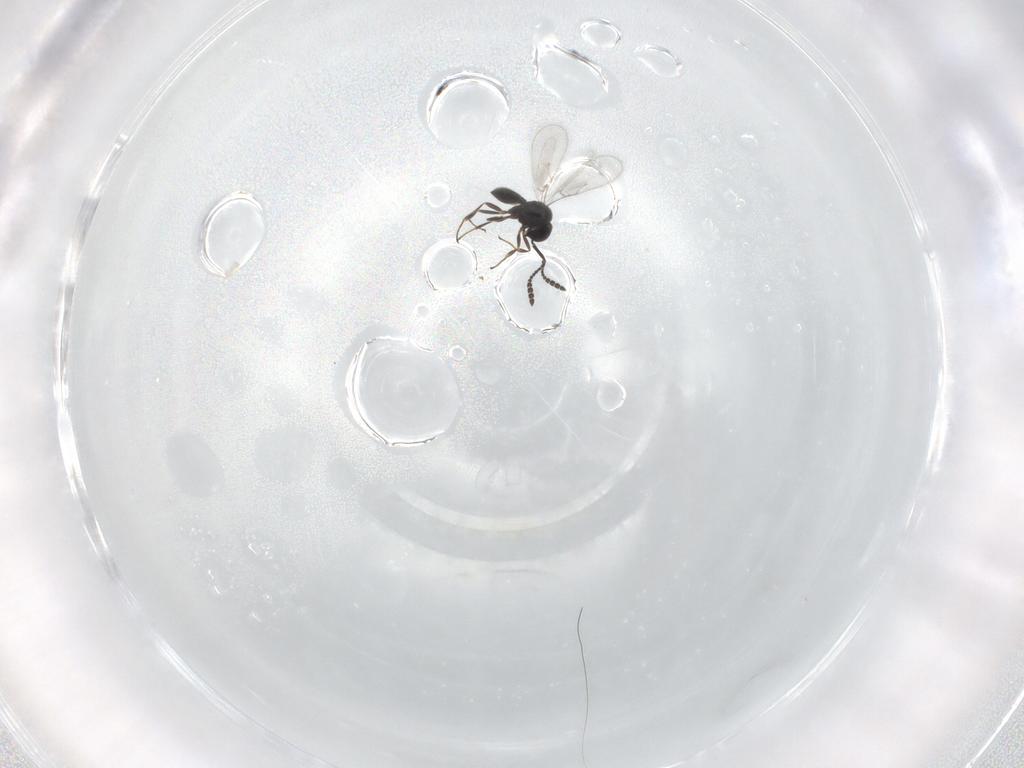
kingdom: Animalia
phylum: Arthropoda
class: Insecta
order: Hymenoptera
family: Scelionidae
